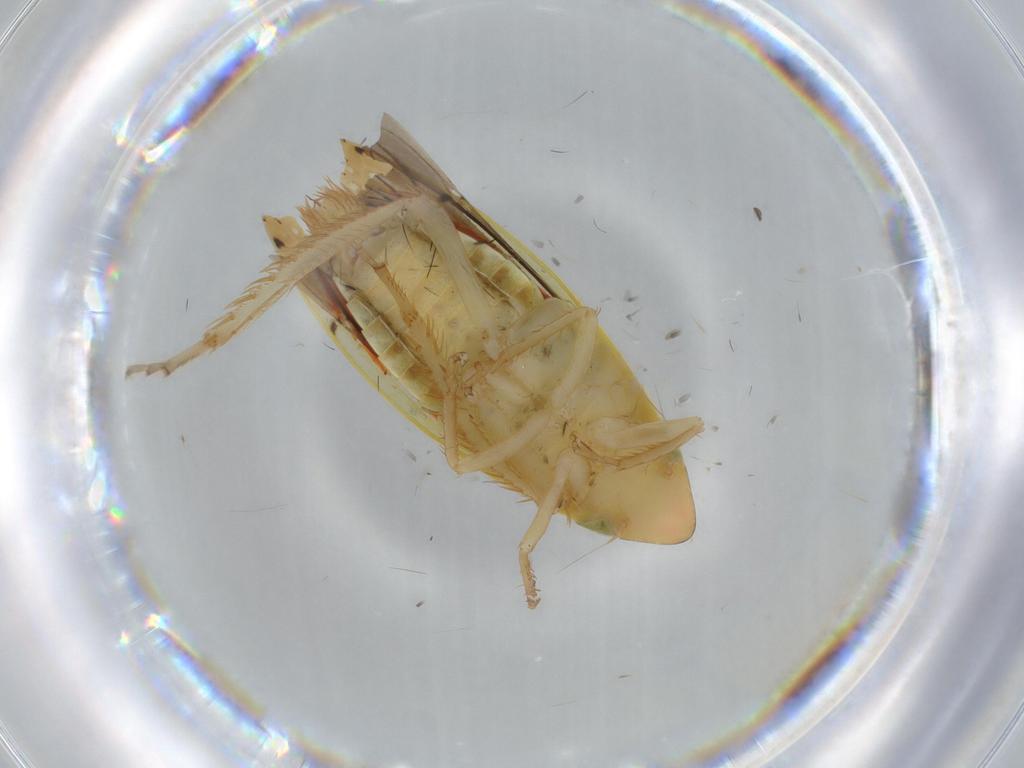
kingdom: Animalia
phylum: Arthropoda
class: Insecta
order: Hemiptera
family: Cicadellidae
